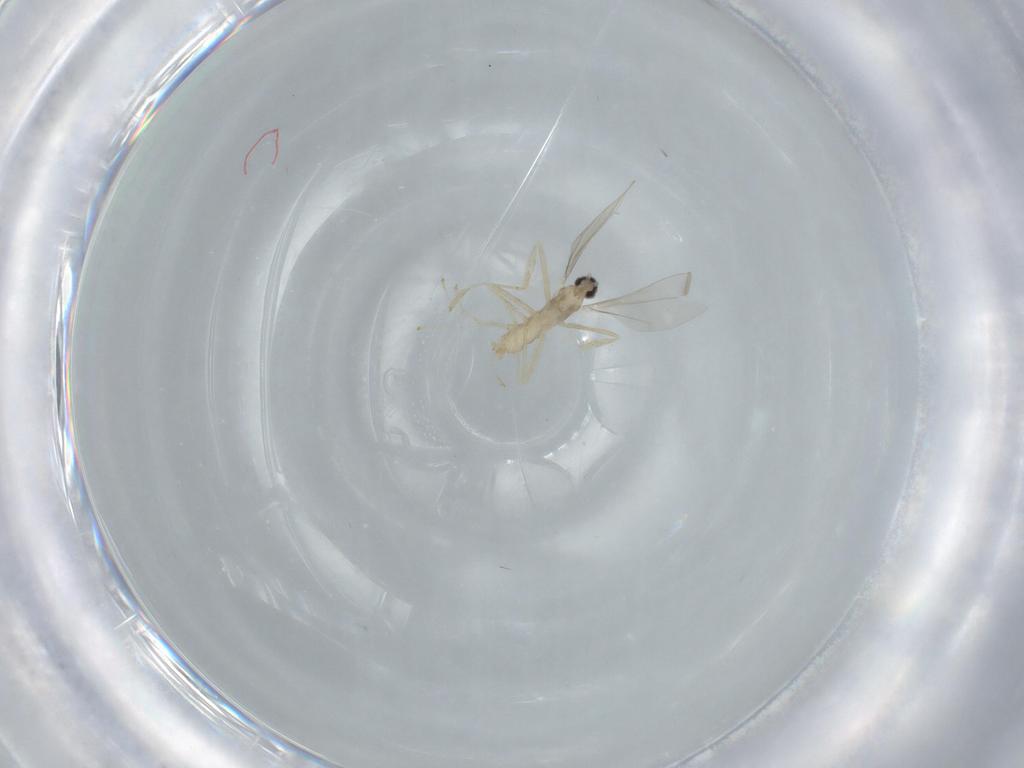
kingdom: Animalia
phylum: Arthropoda
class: Insecta
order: Diptera
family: Cecidomyiidae
